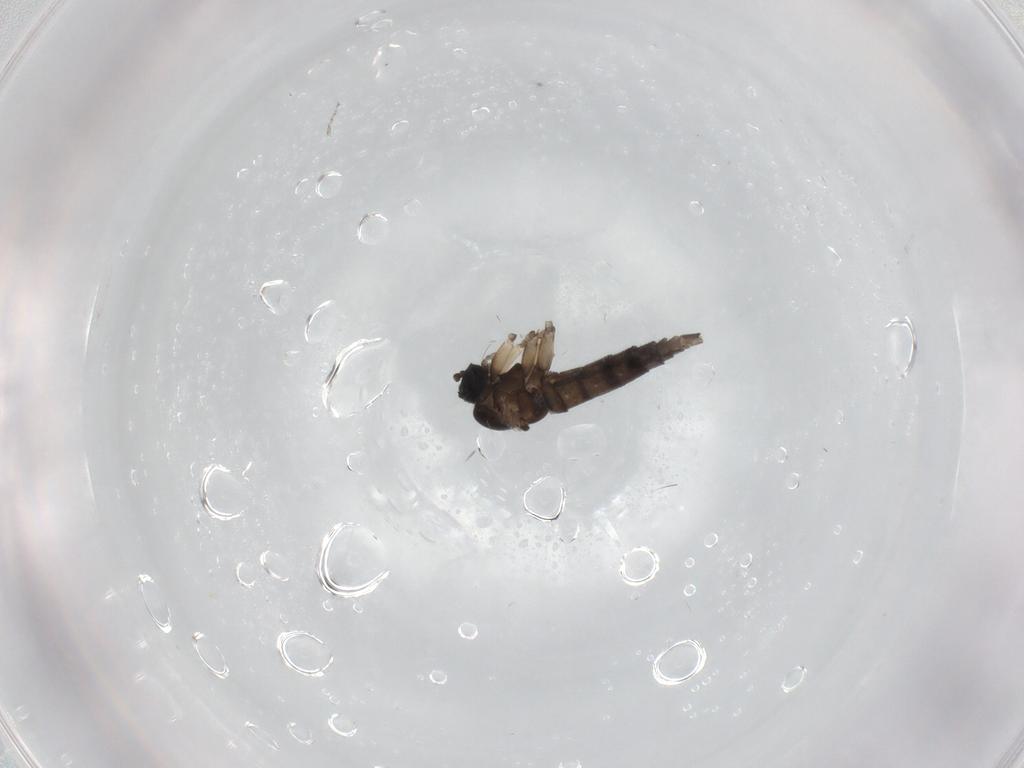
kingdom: Animalia
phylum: Arthropoda
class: Insecta
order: Diptera
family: Sciaridae
